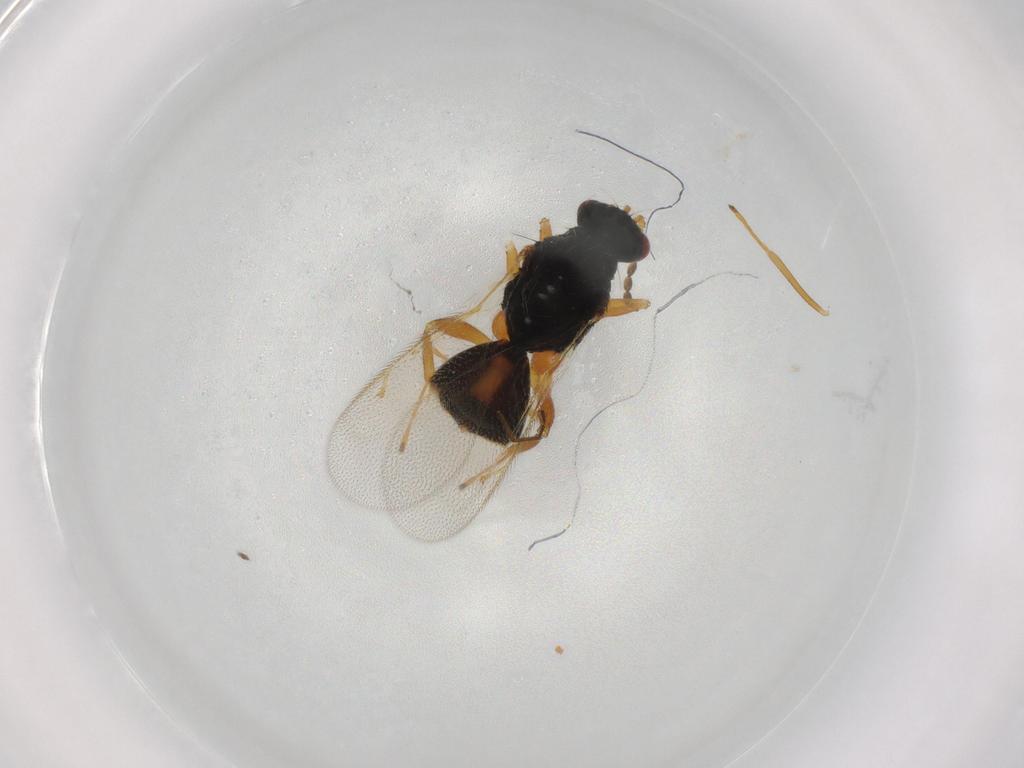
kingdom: Animalia
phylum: Arthropoda
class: Insecta
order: Hymenoptera
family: Eulophidae
